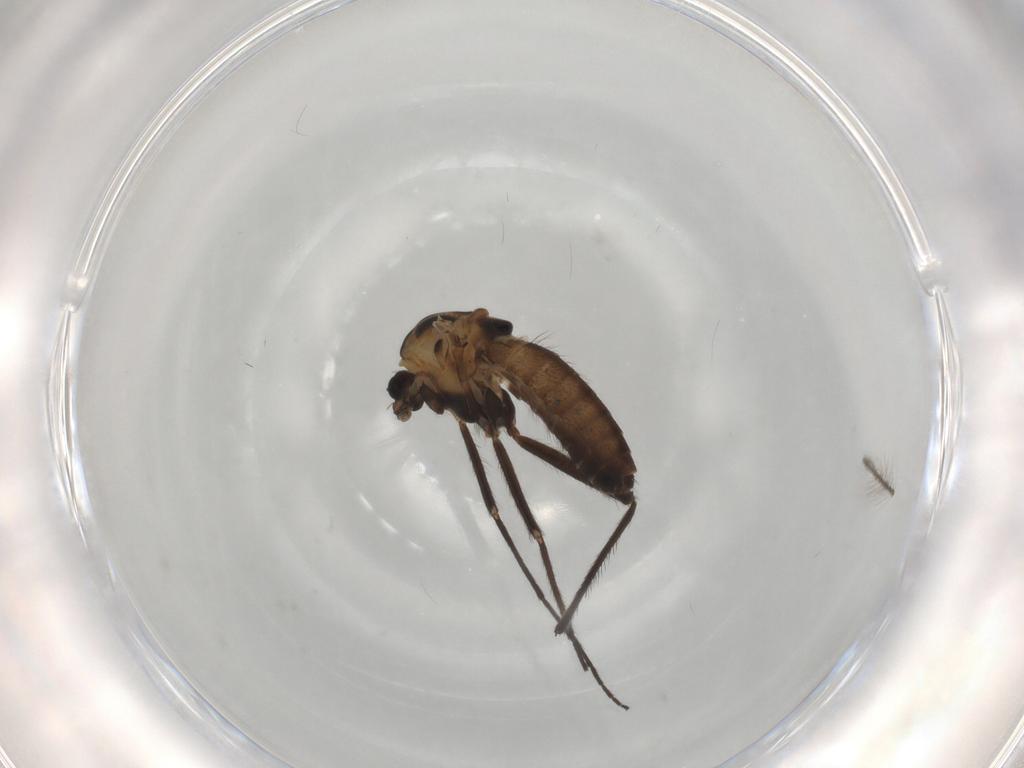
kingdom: Animalia
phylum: Arthropoda
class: Insecta
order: Diptera
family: Chironomidae
